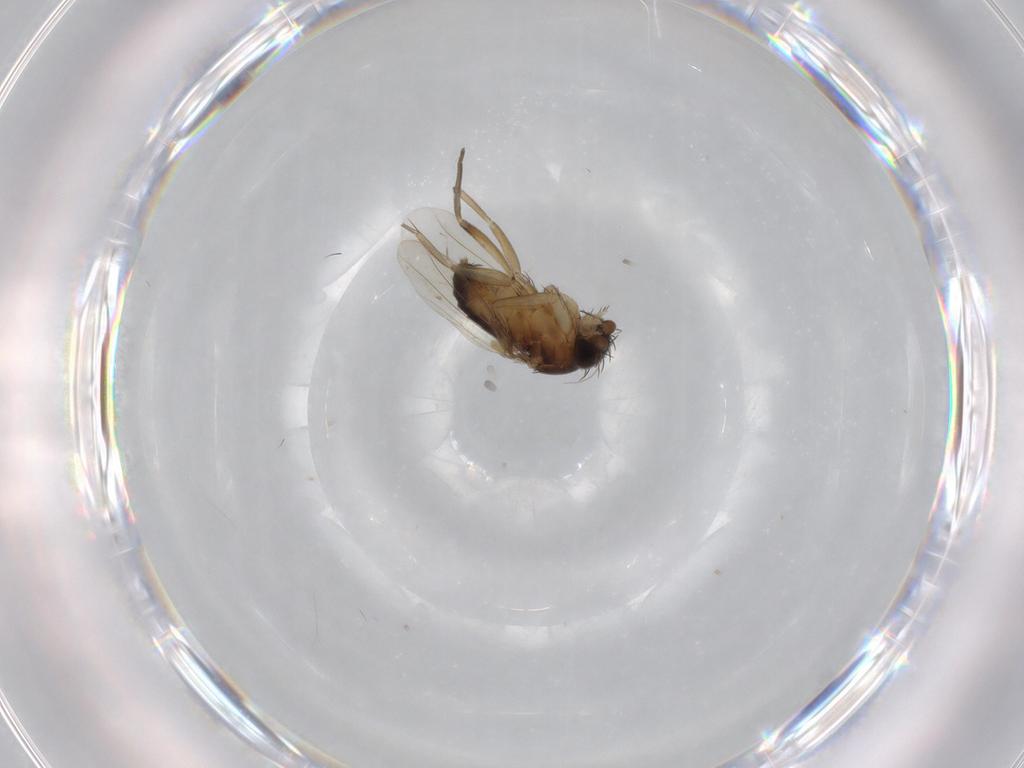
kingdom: Animalia
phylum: Arthropoda
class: Insecta
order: Diptera
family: Phoridae
